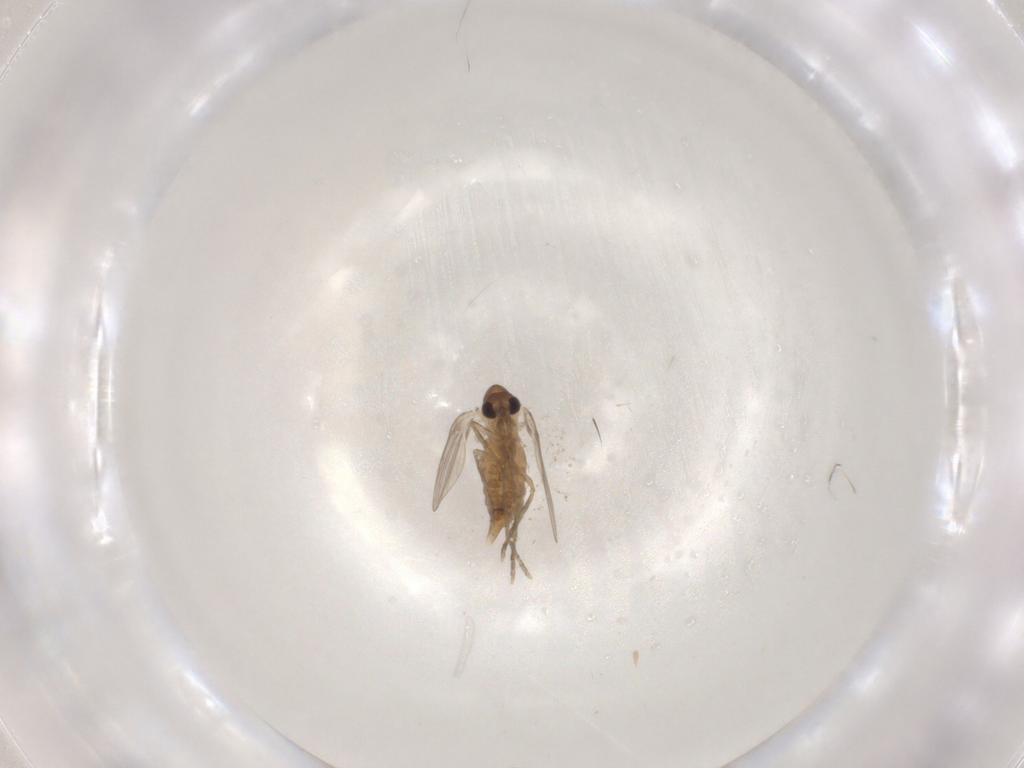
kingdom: Animalia
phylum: Arthropoda
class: Insecta
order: Diptera
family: Psychodidae
